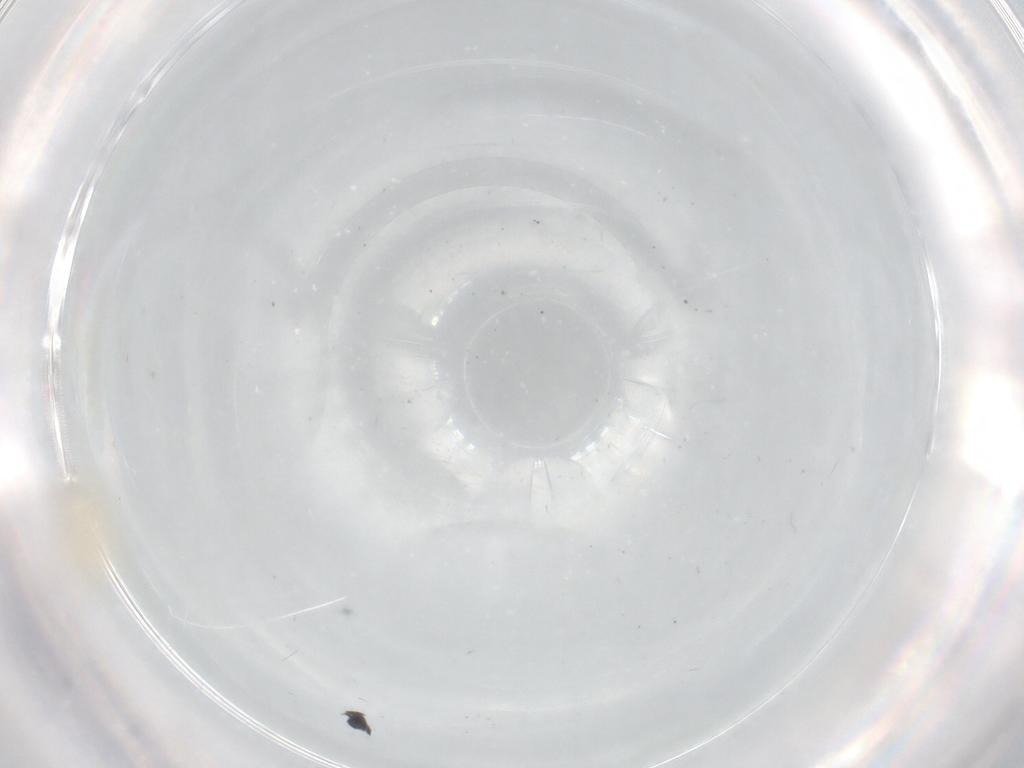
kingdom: Animalia
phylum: Arthropoda
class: Insecta
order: Diptera
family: Psychodidae
